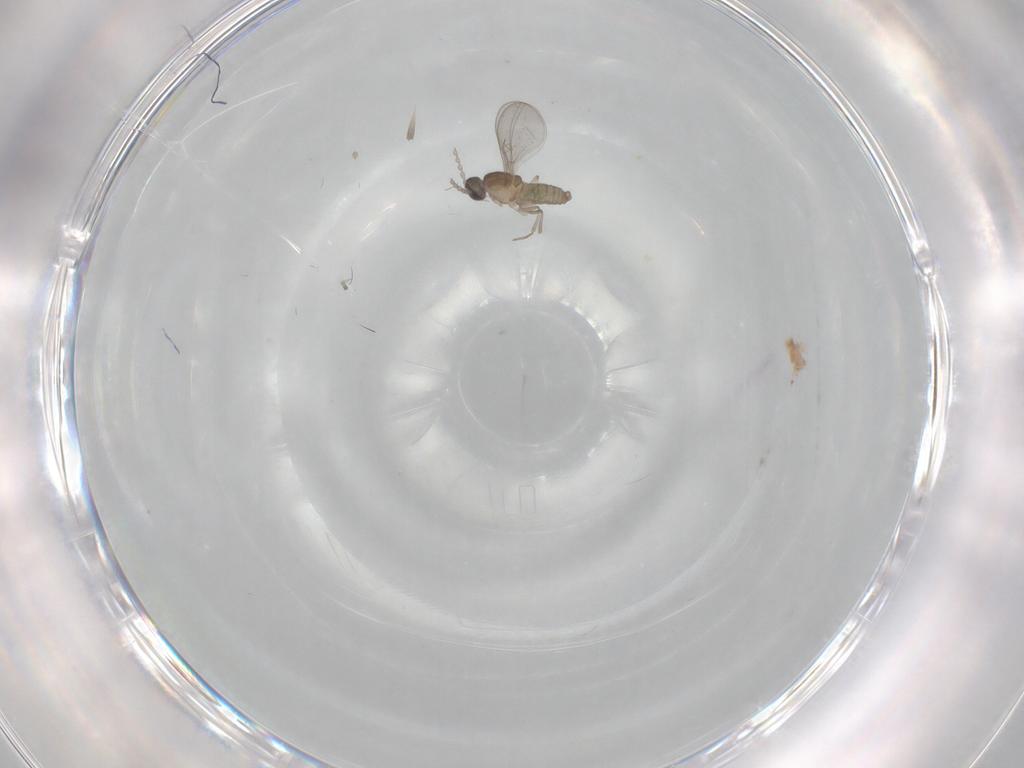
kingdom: Animalia
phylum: Arthropoda
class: Insecta
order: Diptera
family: Cecidomyiidae
